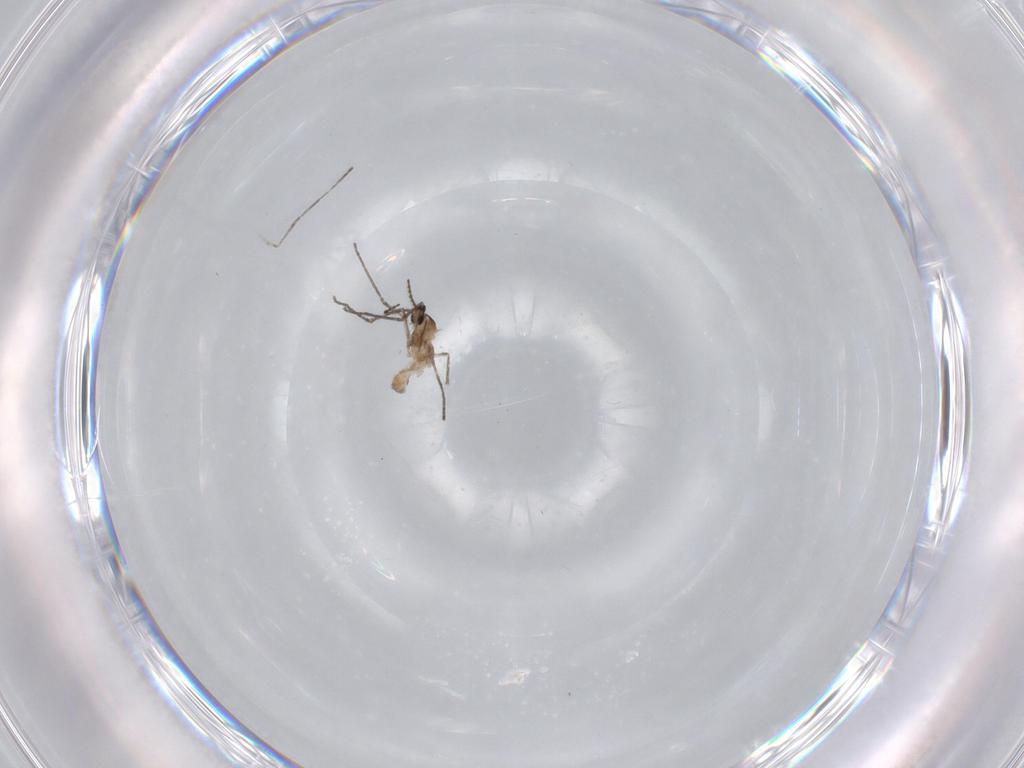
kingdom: Animalia
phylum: Arthropoda
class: Insecta
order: Diptera
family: Cecidomyiidae
